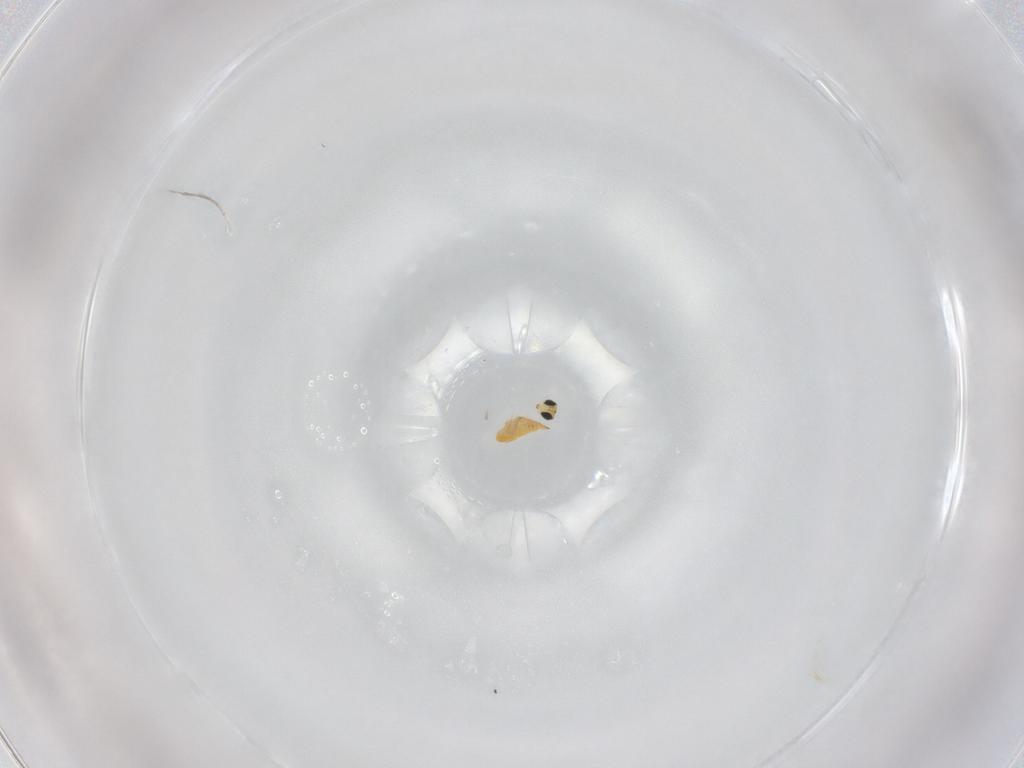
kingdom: Animalia
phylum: Arthropoda
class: Insecta
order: Hymenoptera
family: Trichogrammatidae
